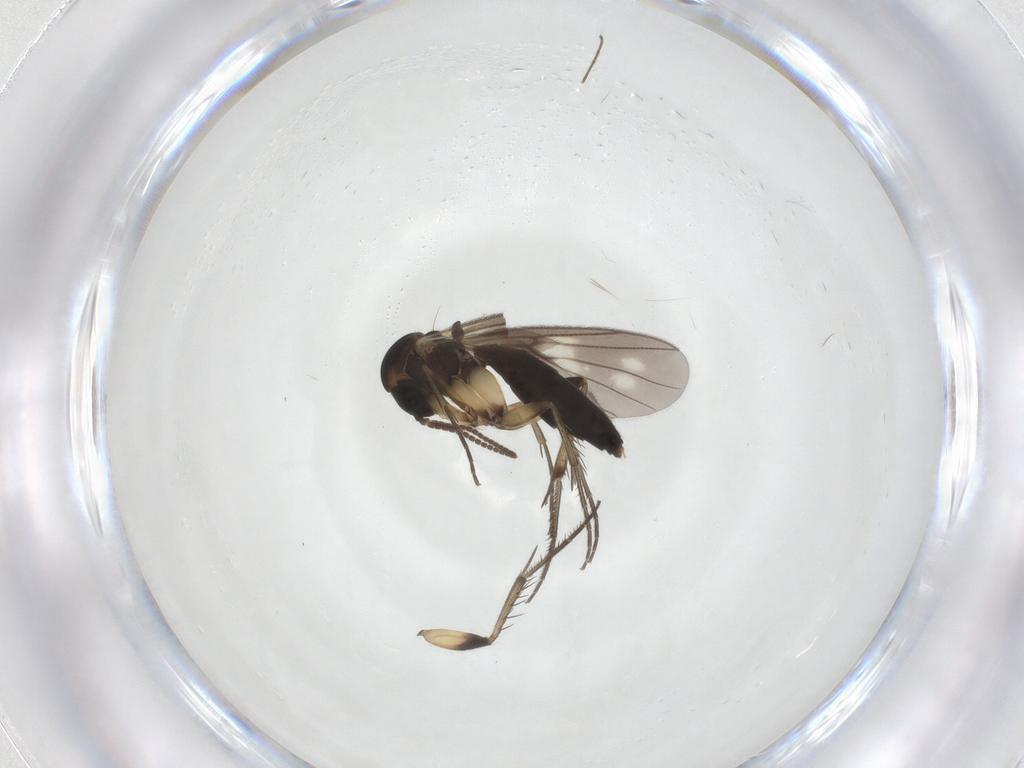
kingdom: Animalia
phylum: Arthropoda
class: Insecta
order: Diptera
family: Mycetophilidae
